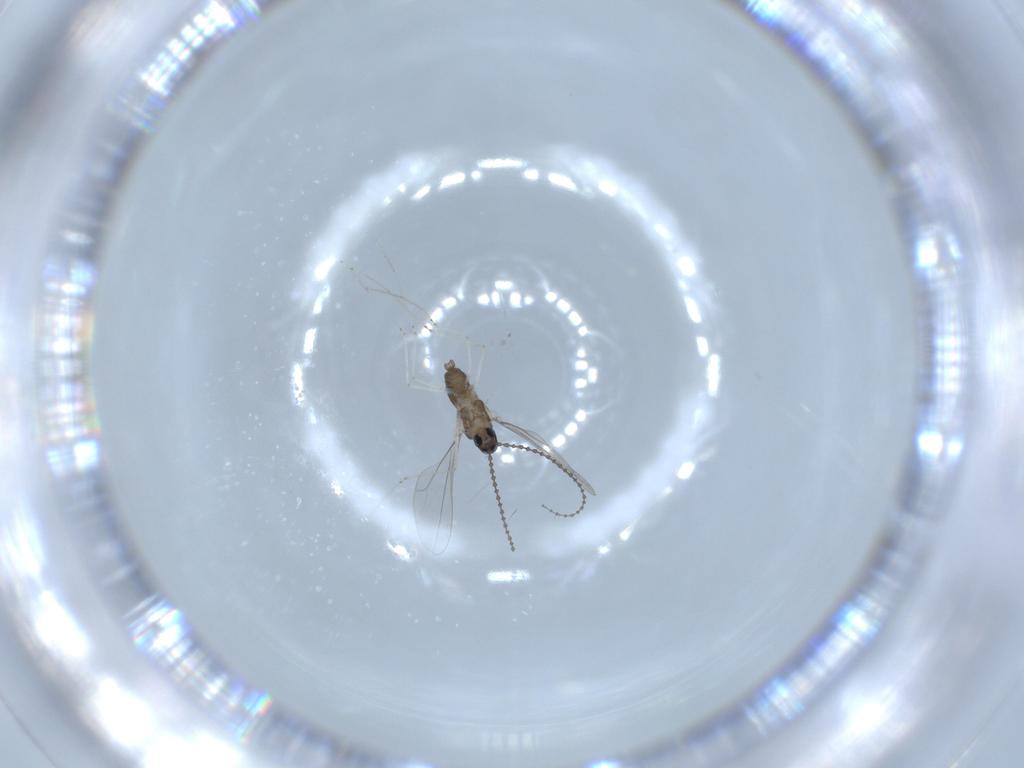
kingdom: Animalia
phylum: Arthropoda
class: Insecta
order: Diptera
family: Cecidomyiidae
